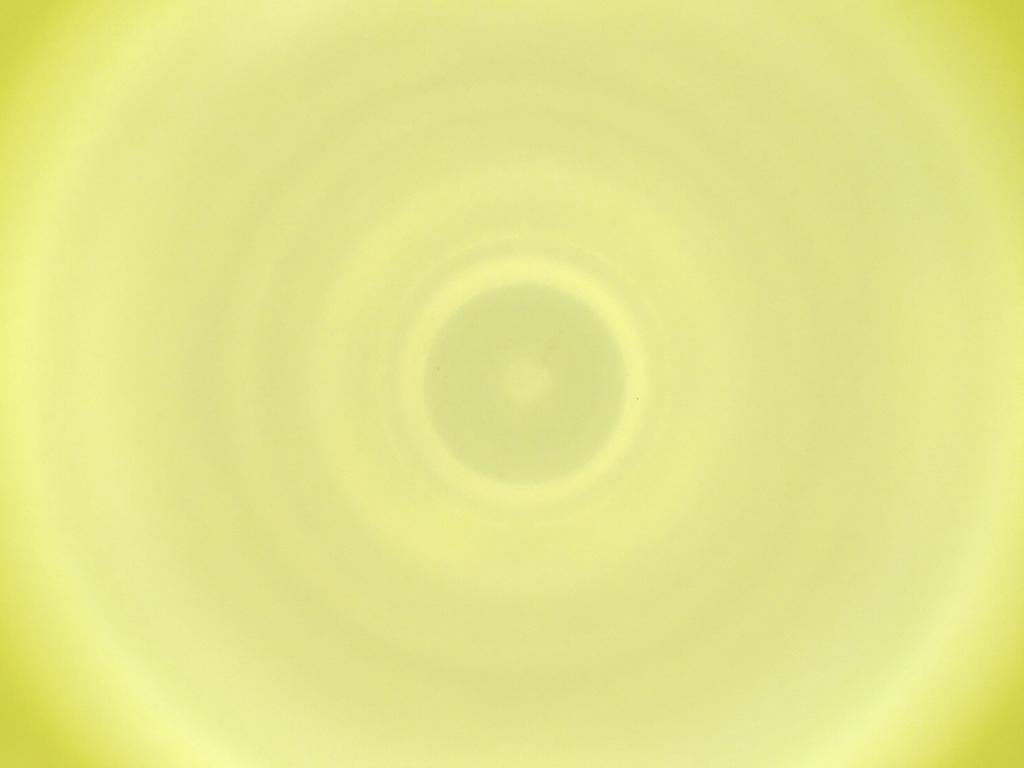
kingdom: Animalia
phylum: Arthropoda
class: Insecta
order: Diptera
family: Cecidomyiidae
